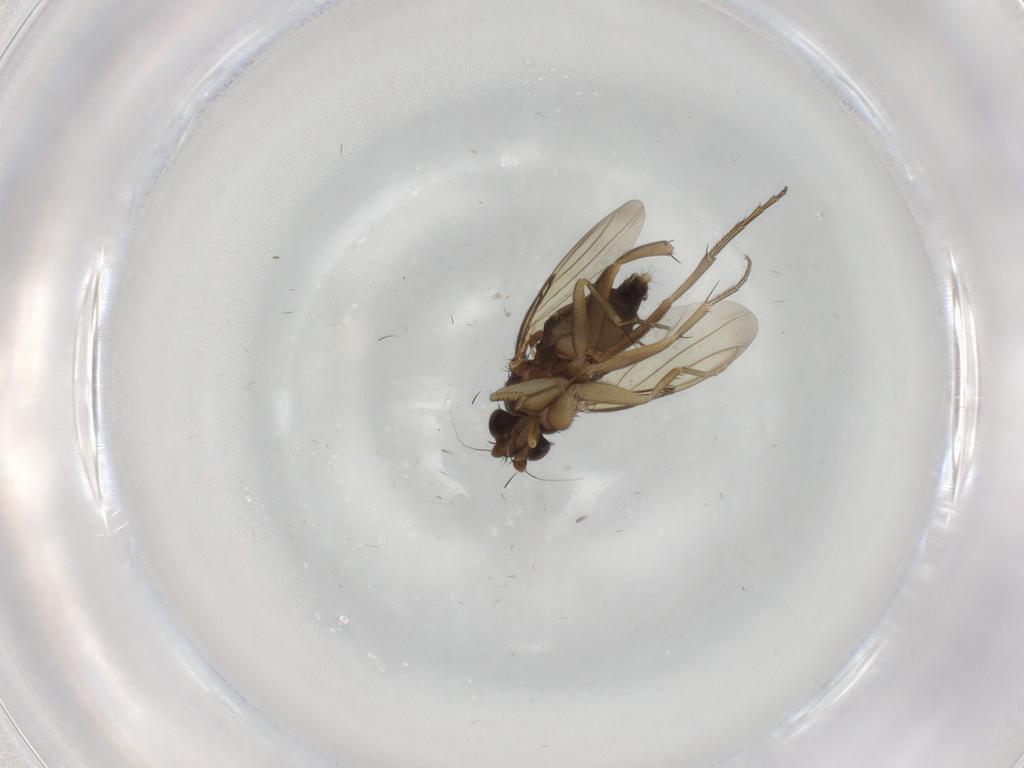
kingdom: Animalia
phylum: Arthropoda
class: Insecta
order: Diptera
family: Phoridae
